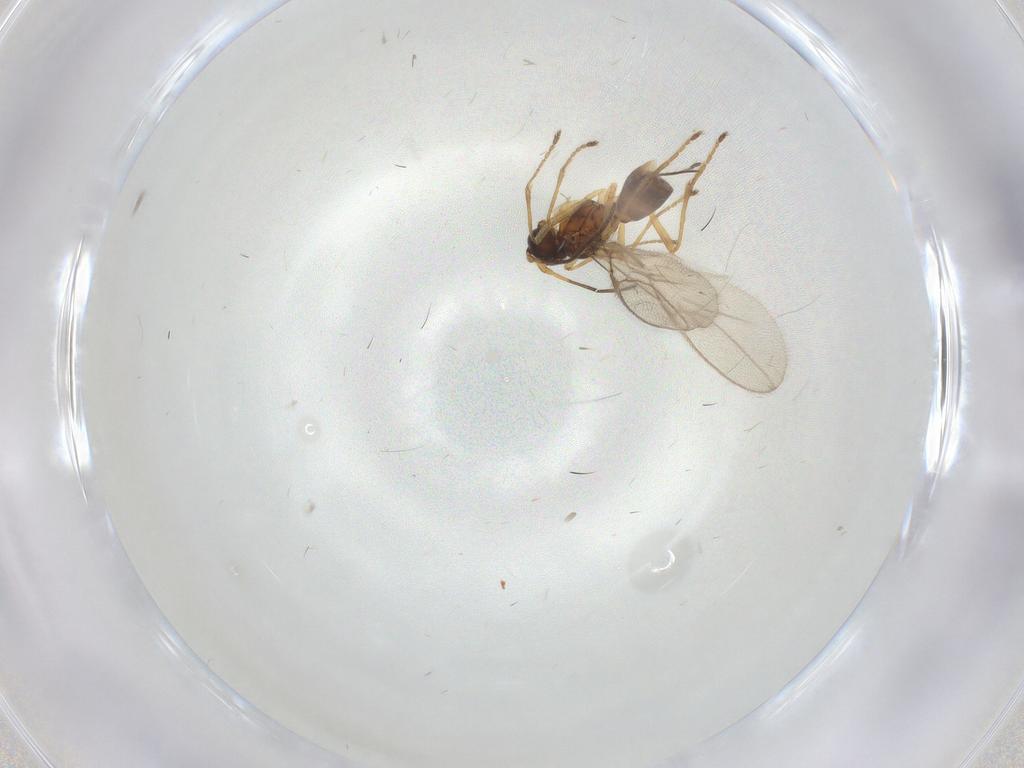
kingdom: Animalia
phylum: Arthropoda
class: Insecta
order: Hymenoptera
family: Braconidae
